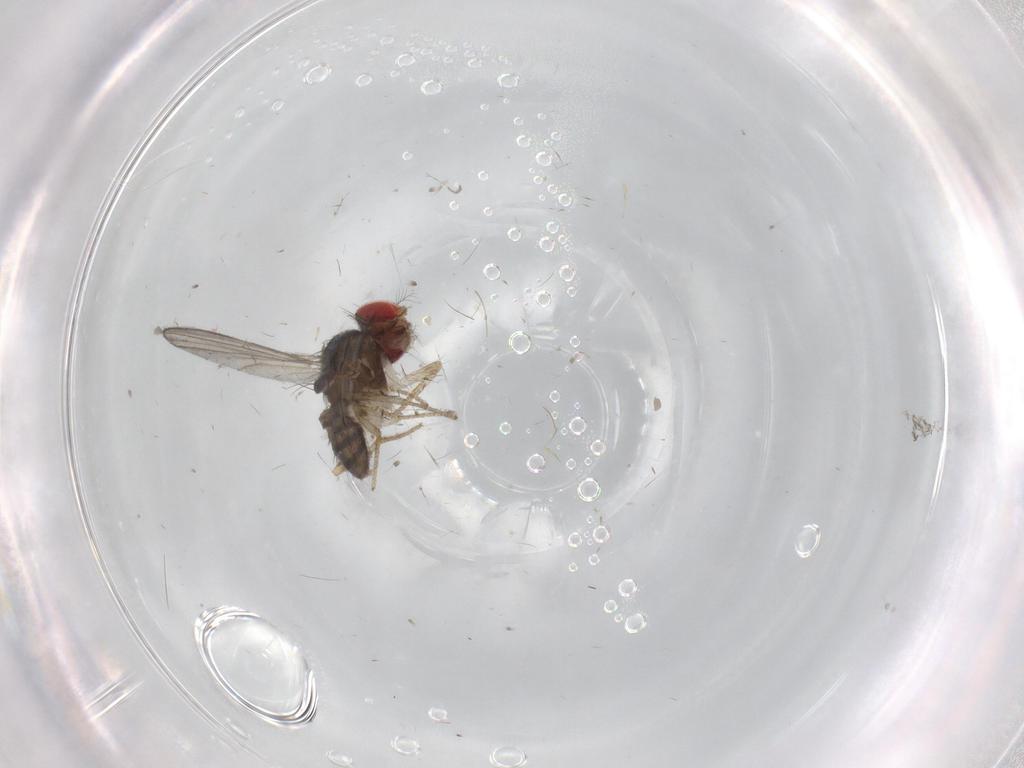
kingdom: Animalia
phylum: Arthropoda
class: Insecta
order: Diptera
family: Drosophilidae
